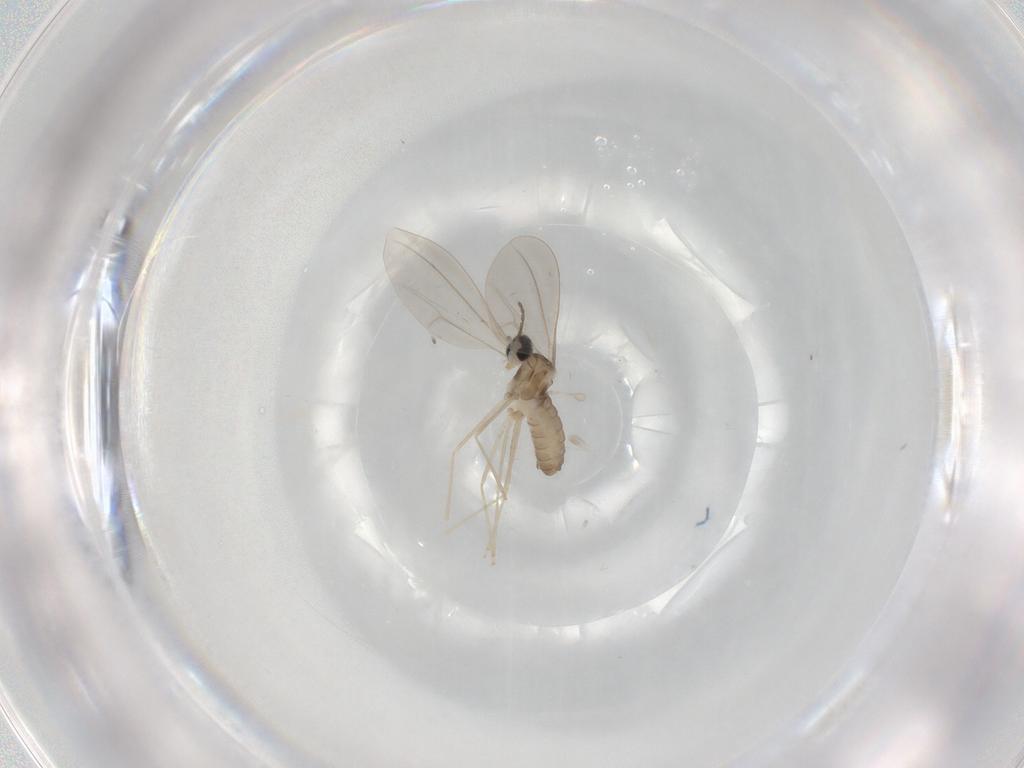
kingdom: Animalia
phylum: Arthropoda
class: Insecta
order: Diptera
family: Cecidomyiidae
